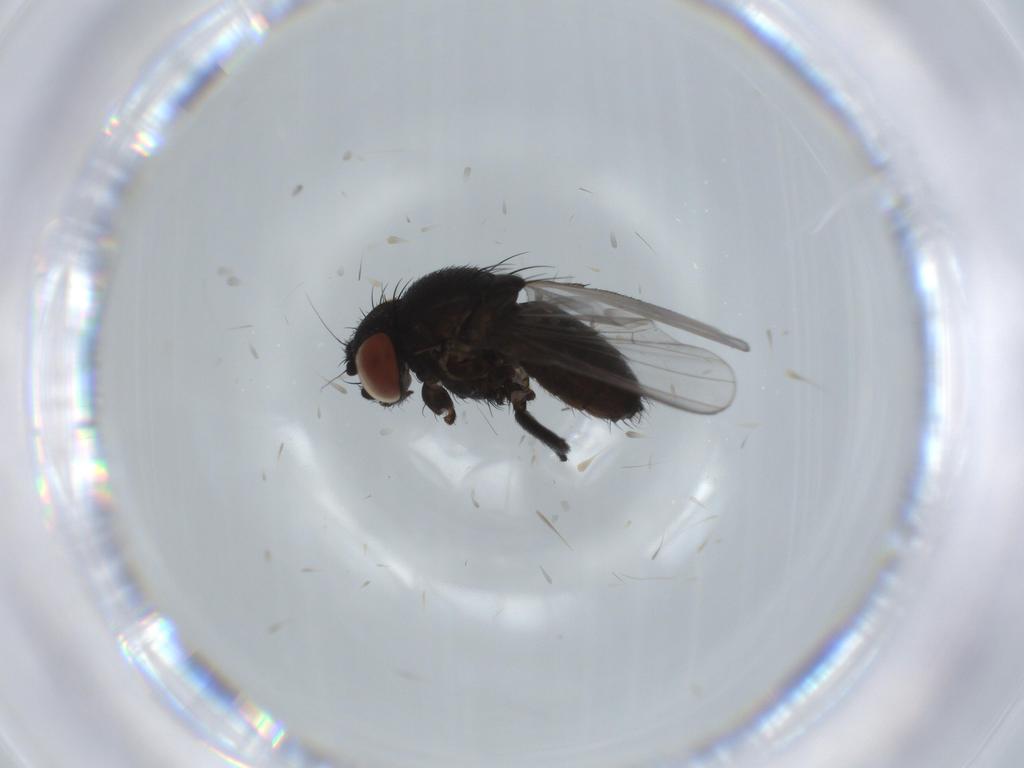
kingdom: Animalia
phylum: Arthropoda
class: Insecta
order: Diptera
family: Milichiidae
